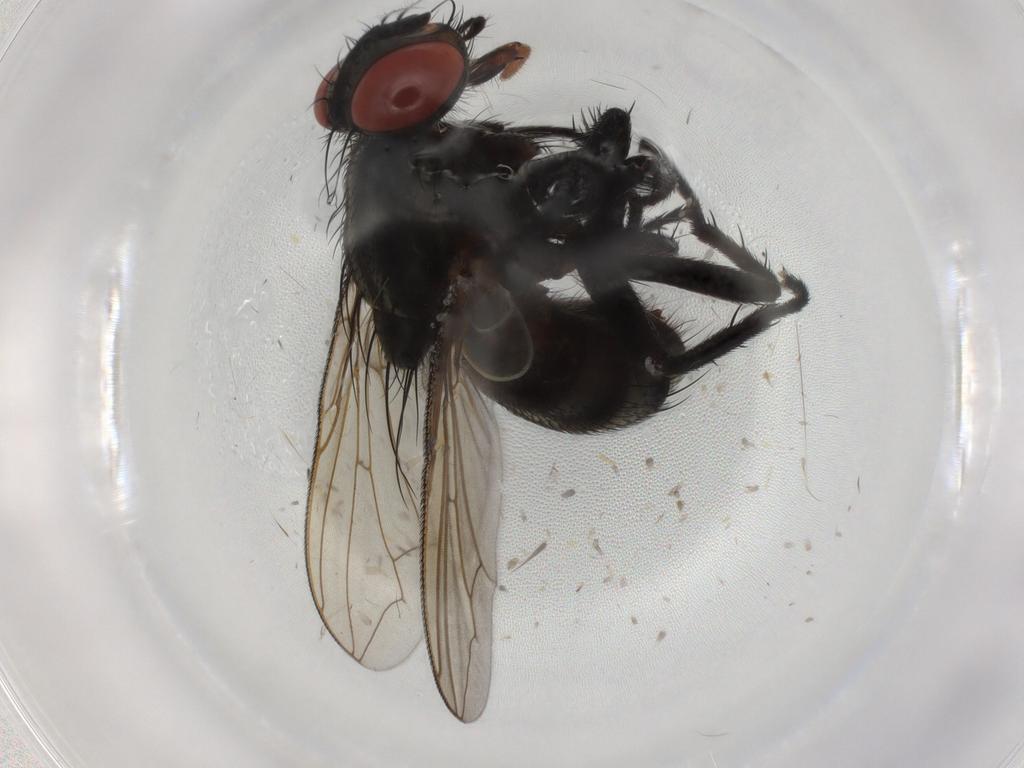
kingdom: Animalia
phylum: Arthropoda
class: Insecta
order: Diptera
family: Sarcophagidae
